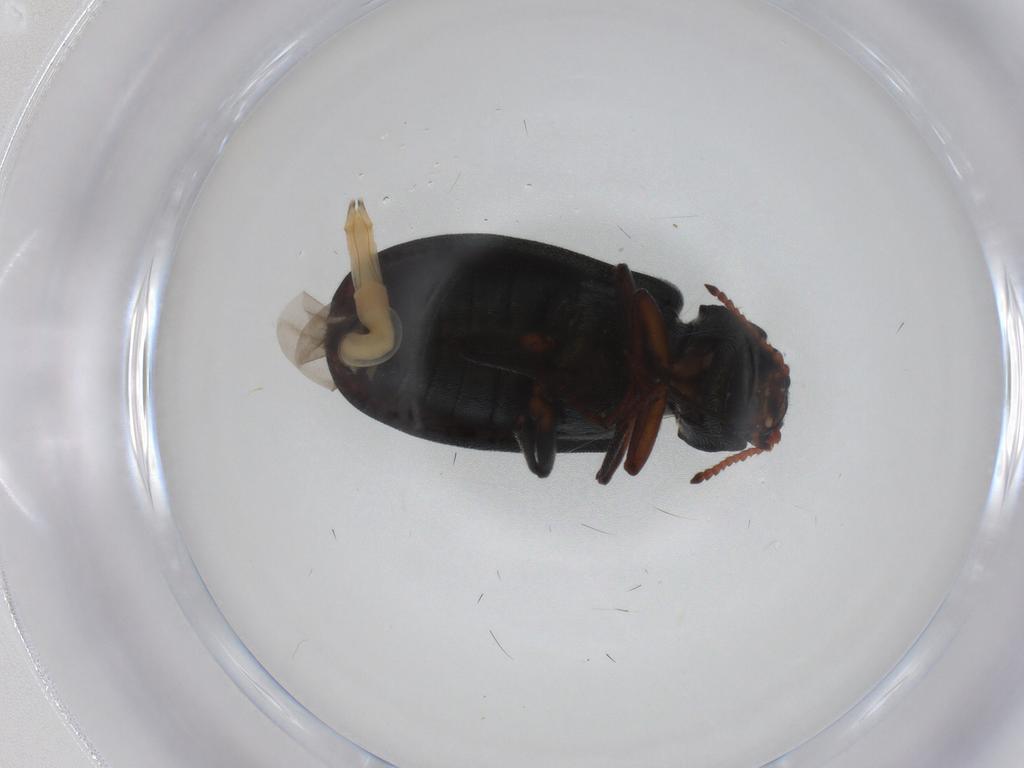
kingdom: Animalia
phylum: Arthropoda
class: Insecta
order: Coleoptera
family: Melyridae
